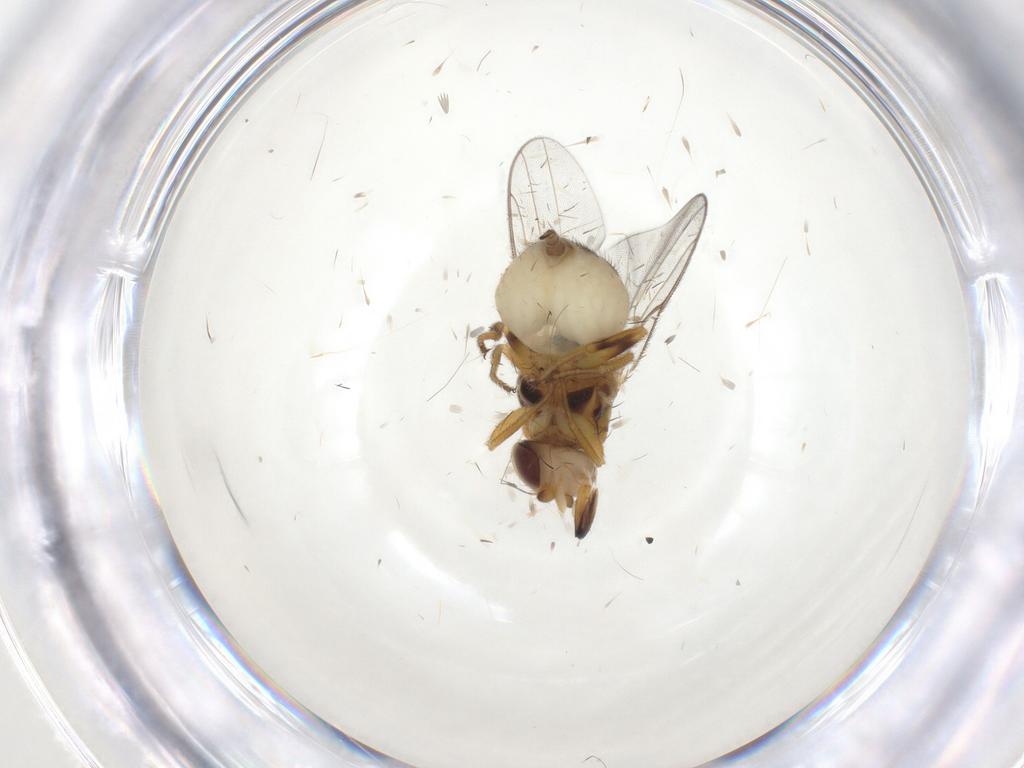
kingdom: Animalia
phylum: Arthropoda
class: Insecta
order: Diptera
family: Chloropidae
